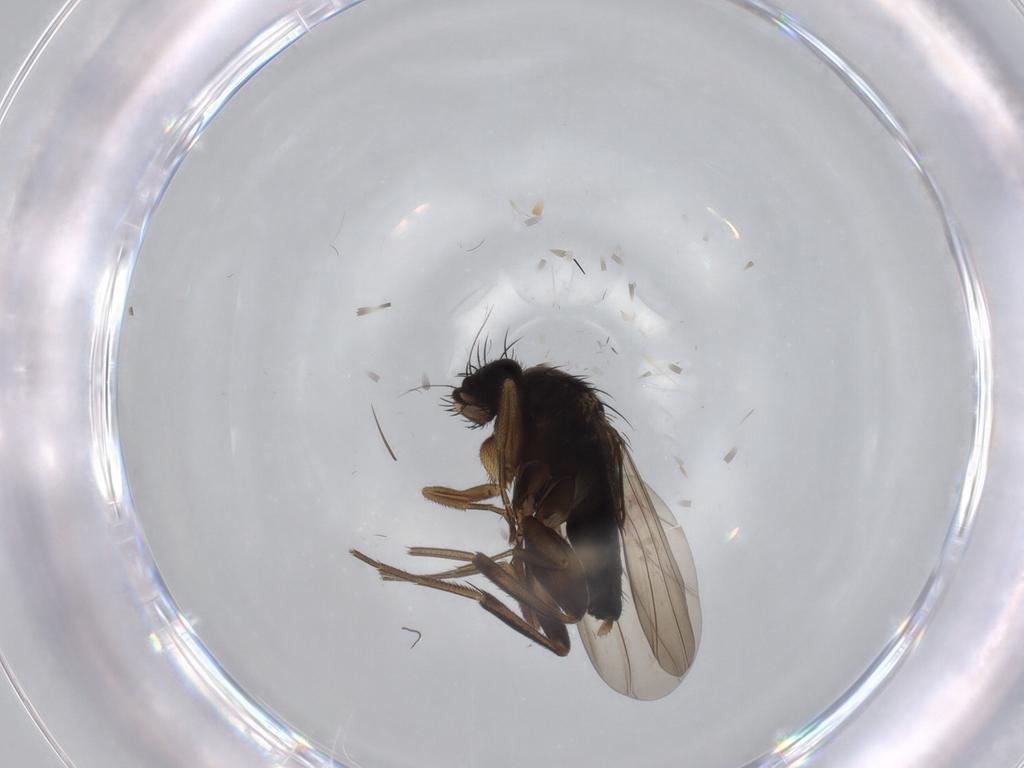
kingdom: Animalia
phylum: Arthropoda
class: Insecta
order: Diptera
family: Phoridae
